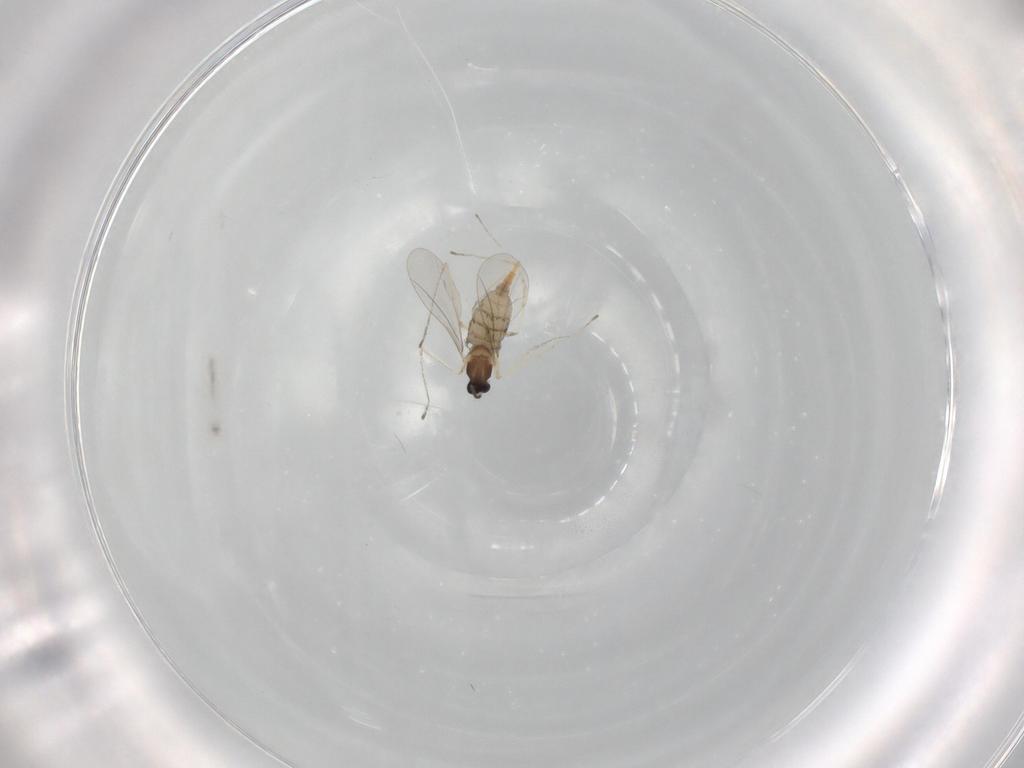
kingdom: Animalia
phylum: Arthropoda
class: Insecta
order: Diptera
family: Cecidomyiidae
